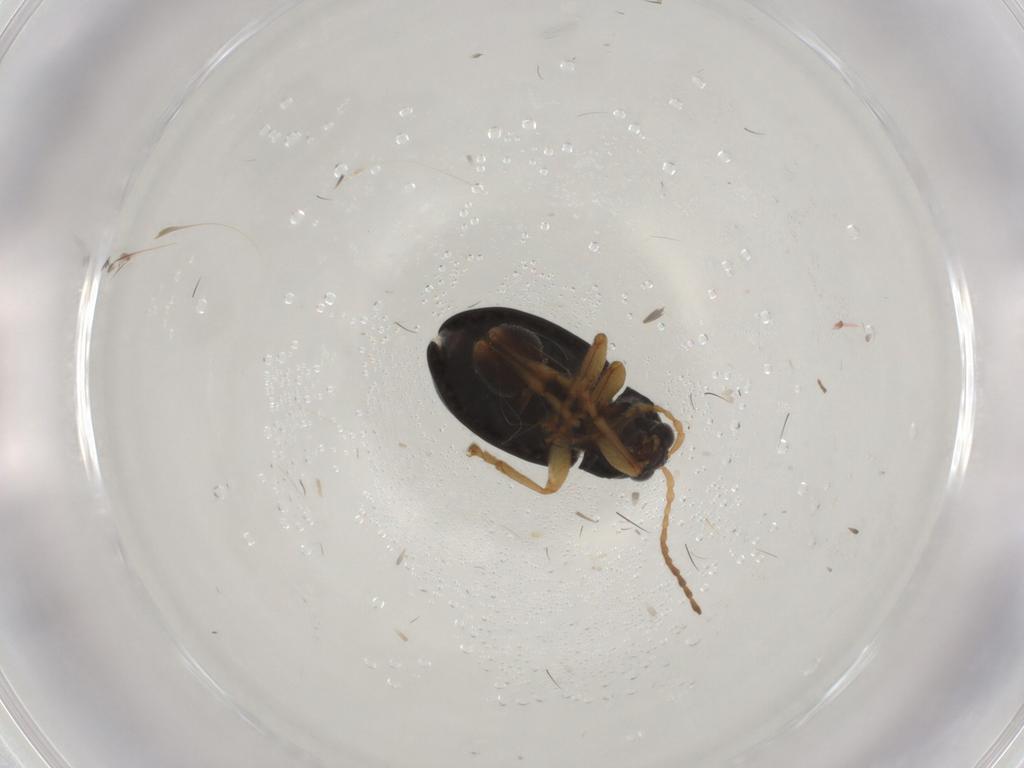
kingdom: Animalia
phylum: Arthropoda
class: Insecta
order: Coleoptera
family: Chrysomelidae
